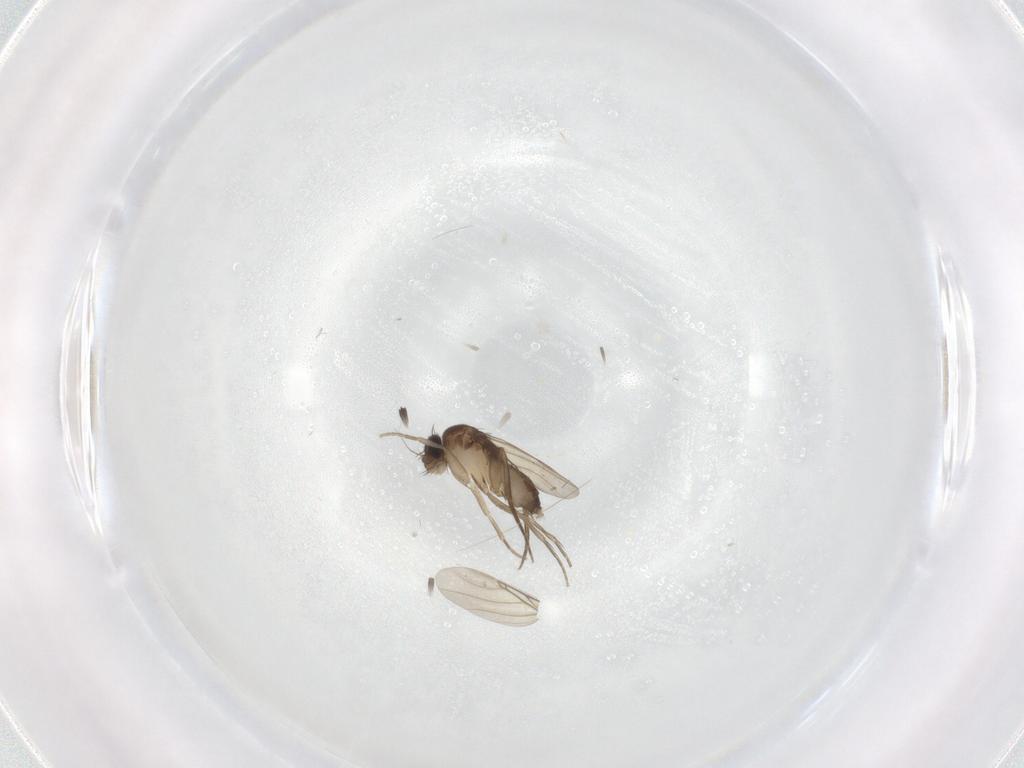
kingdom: Animalia
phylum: Arthropoda
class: Insecta
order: Diptera
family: Phoridae
